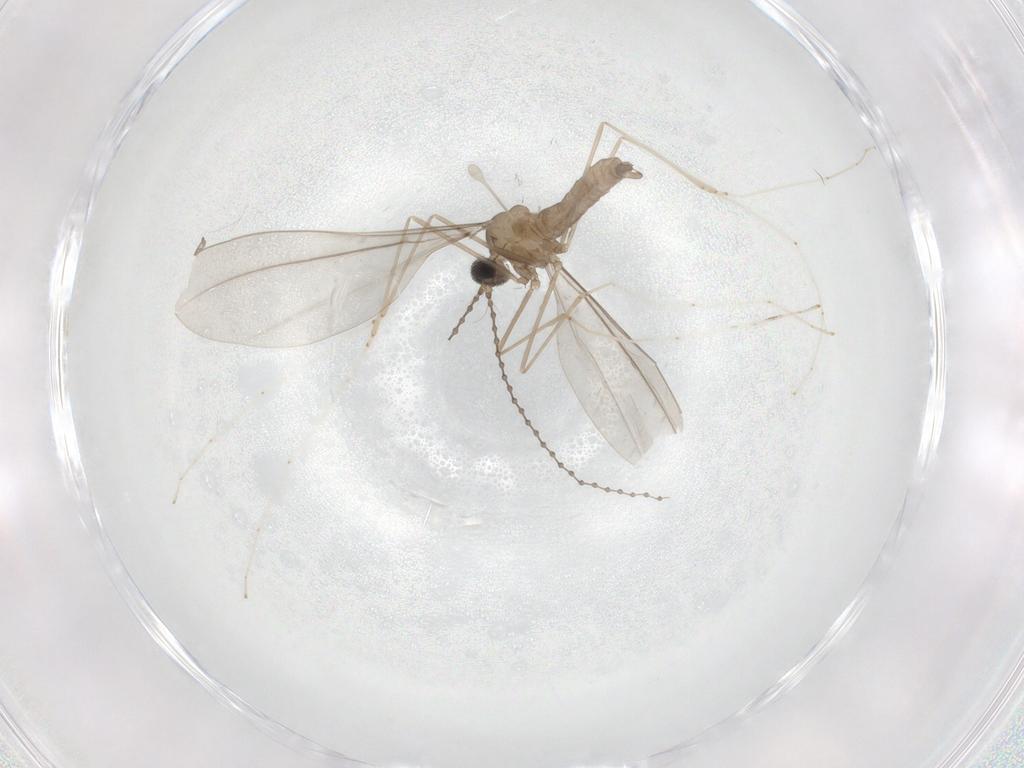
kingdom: Animalia
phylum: Arthropoda
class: Insecta
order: Diptera
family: Chironomidae
